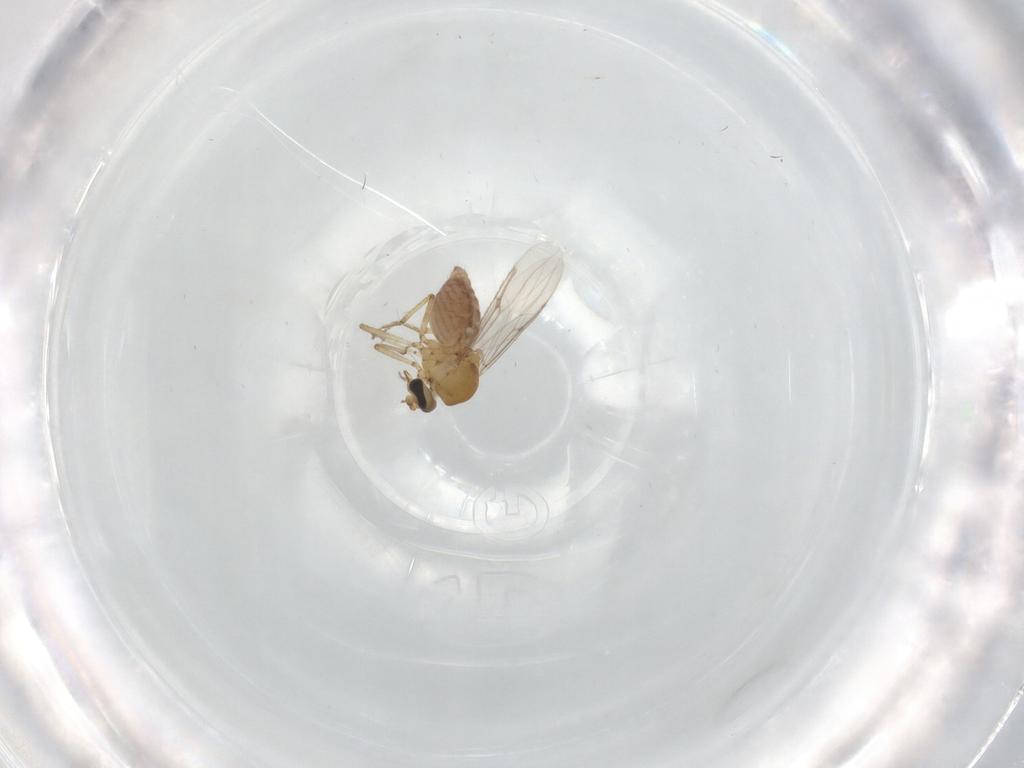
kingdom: Animalia
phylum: Arthropoda
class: Insecta
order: Diptera
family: Ceratopogonidae
